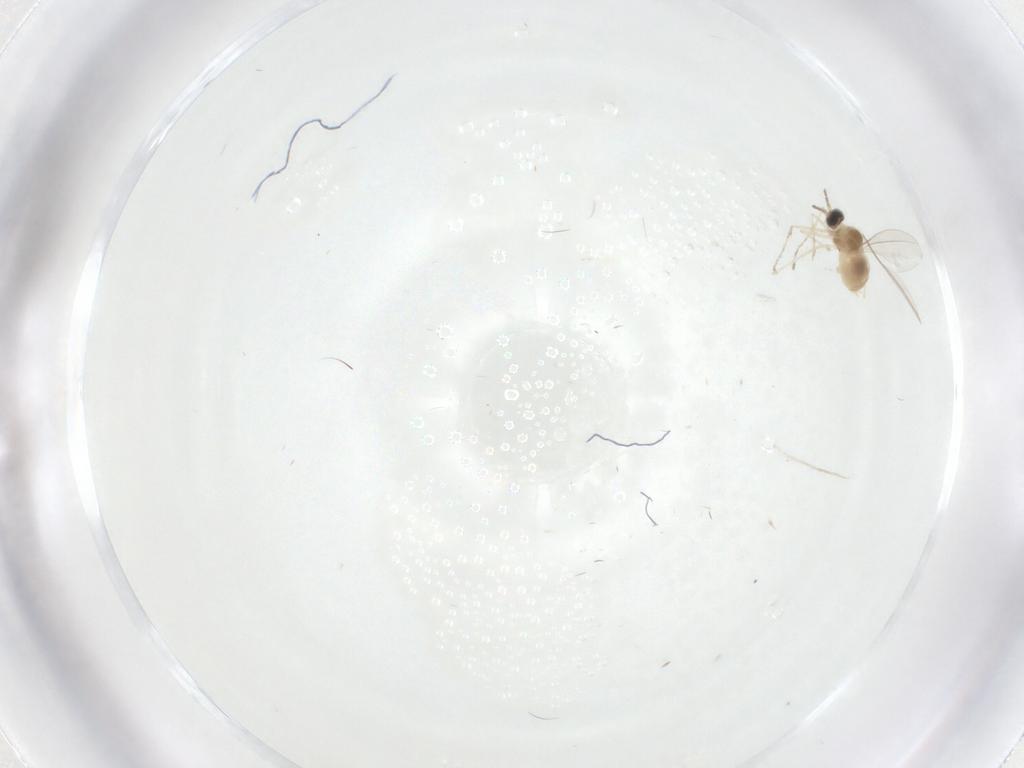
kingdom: Animalia
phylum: Arthropoda
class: Insecta
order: Diptera
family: Cecidomyiidae
